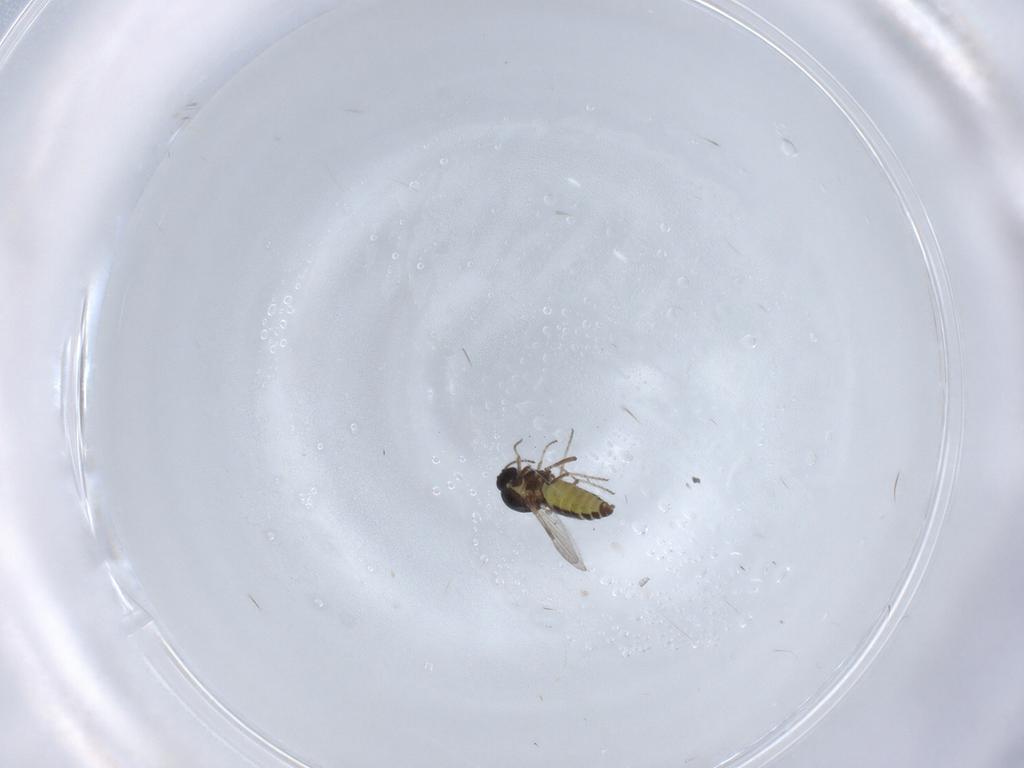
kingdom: Animalia
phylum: Arthropoda
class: Insecta
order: Diptera
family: Ceratopogonidae
